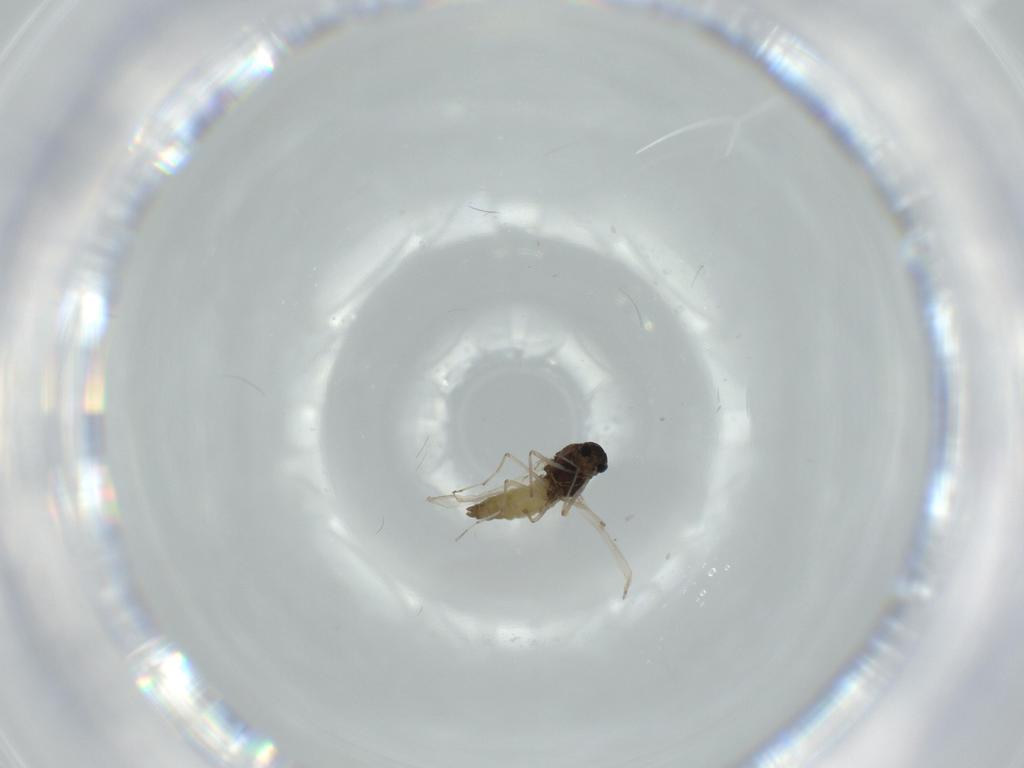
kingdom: Animalia
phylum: Arthropoda
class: Insecta
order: Diptera
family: Chironomidae
